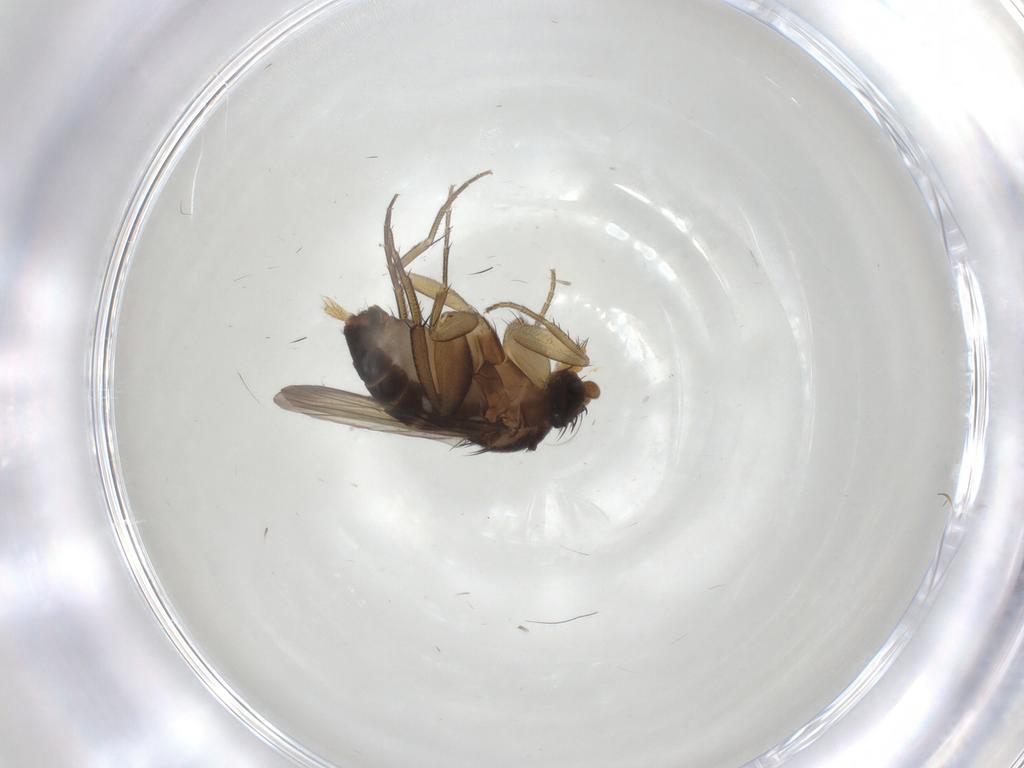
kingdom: Animalia
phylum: Arthropoda
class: Insecta
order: Diptera
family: Phoridae
